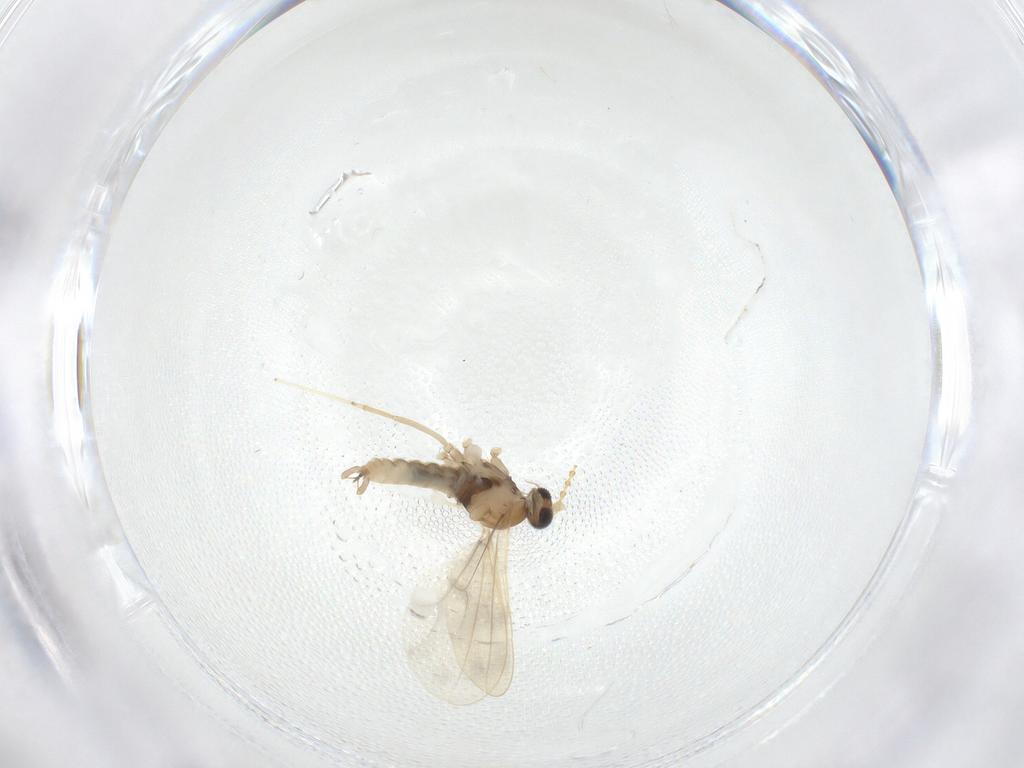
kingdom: Animalia
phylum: Arthropoda
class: Insecta
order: Diptera
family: Cecidomyiidae
